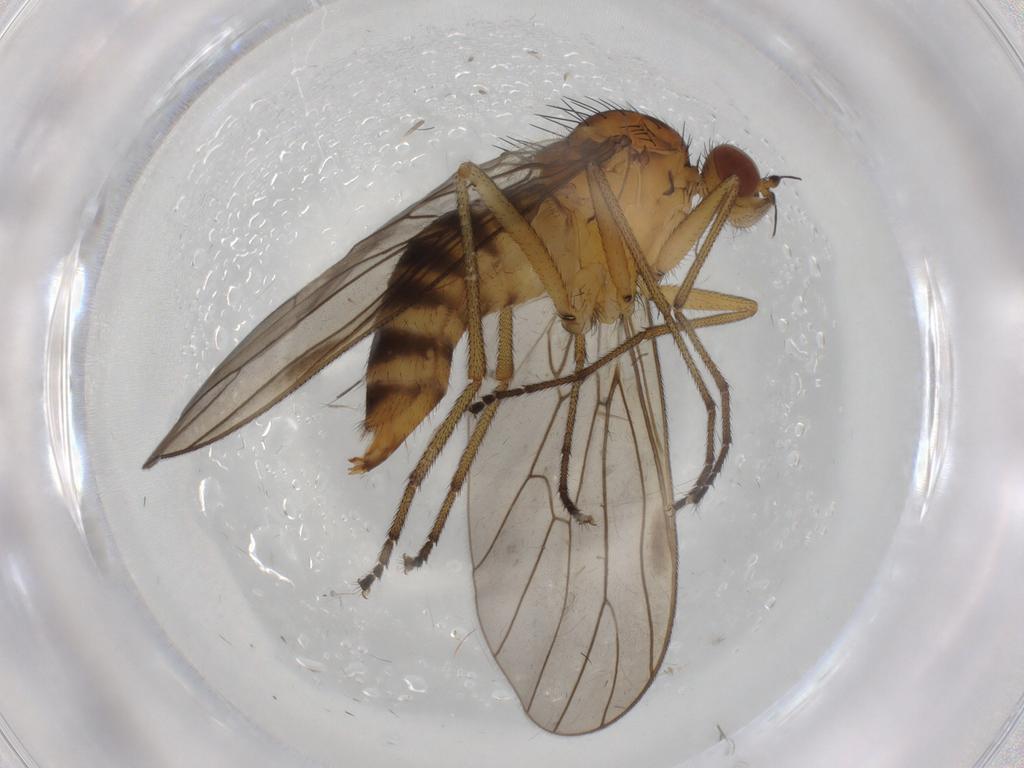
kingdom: Animalia
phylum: Arthropoda
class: Insecta
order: Diptera
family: Brachystomatidae
